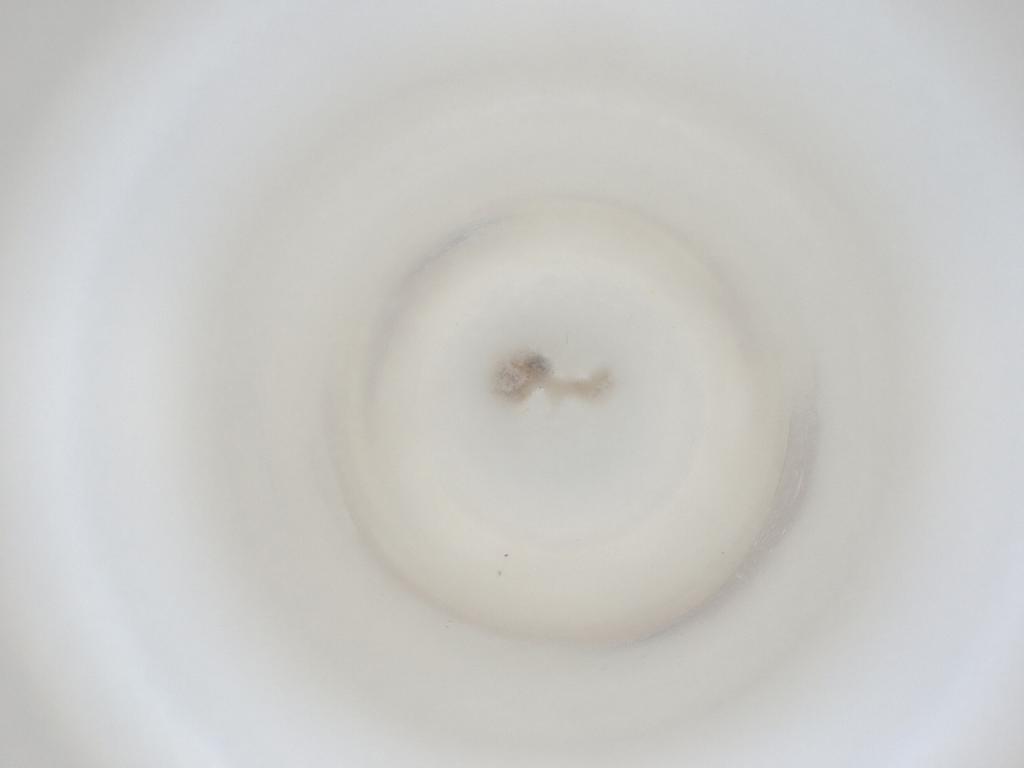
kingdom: Animalia
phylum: Arthropoda
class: Insecta
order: Diptera
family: Cecidomyiidae
